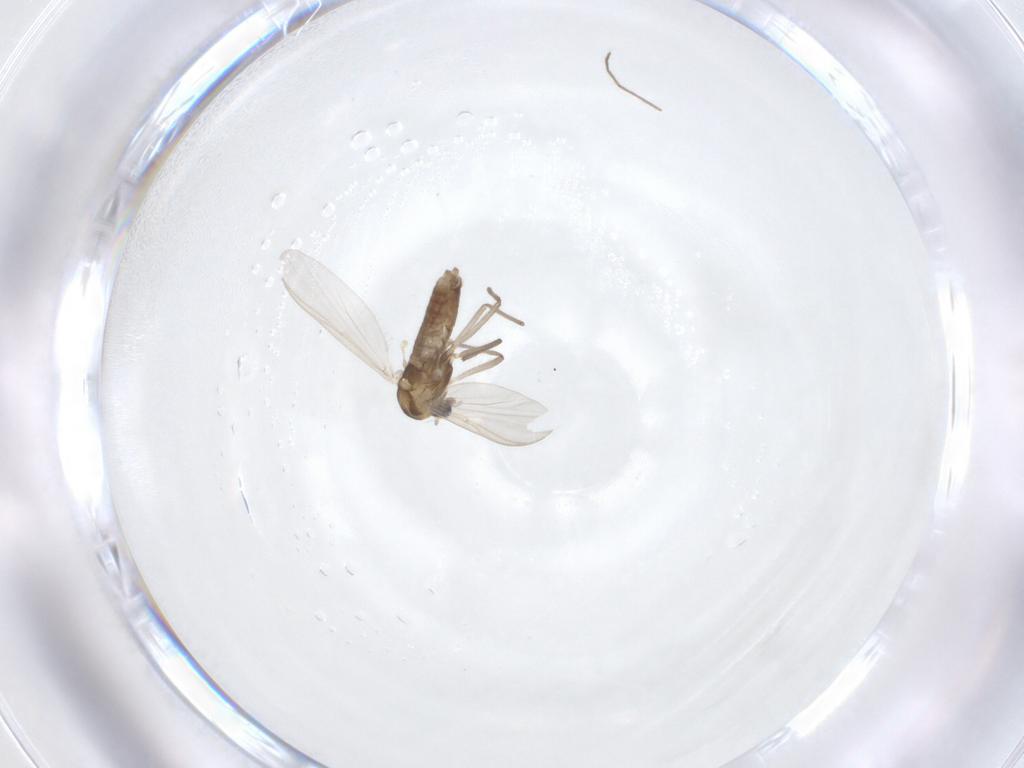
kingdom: Animalia
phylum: Arthropoda
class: Insecta
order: Diptera
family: Chironomidae
